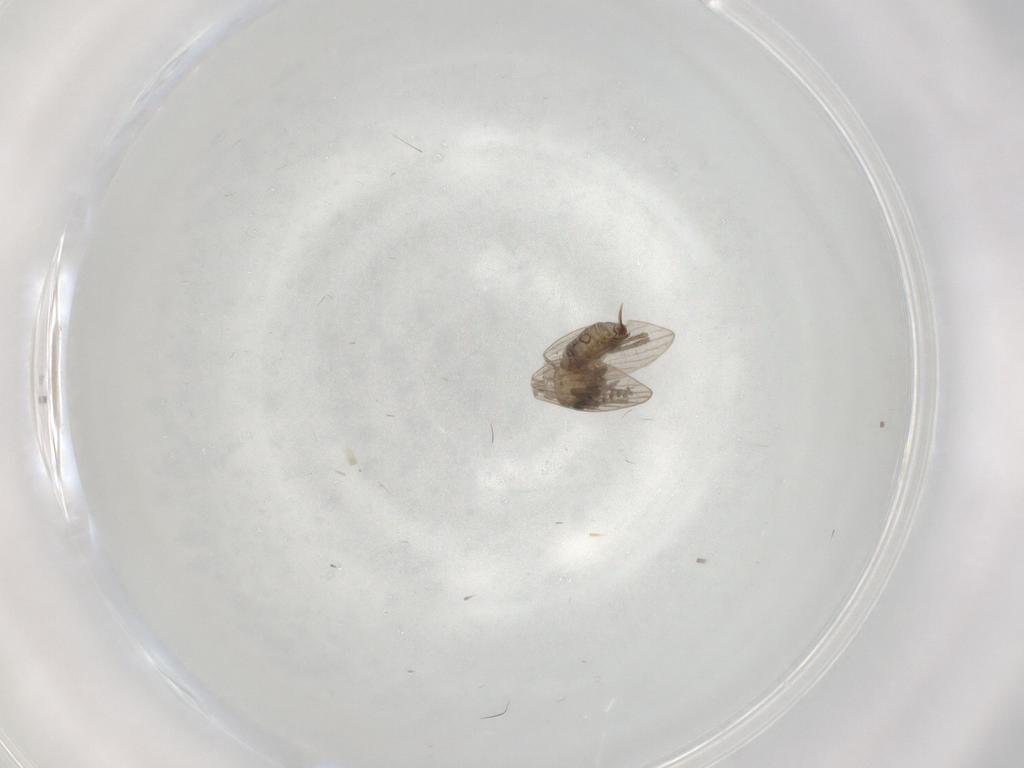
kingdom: Animalia
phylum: Arthropoda
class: Insecta
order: Diptera
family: Psychodidae
